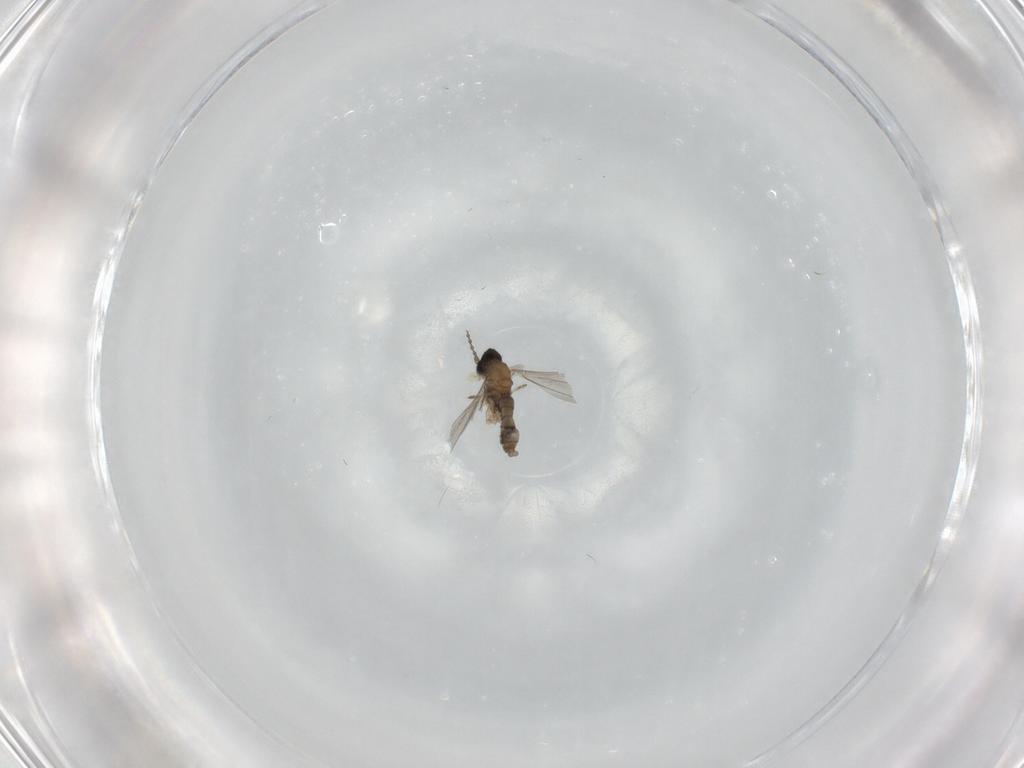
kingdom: Animalia
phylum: Arthropoda
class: Insecta
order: Diptera
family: Cecidomyiidae
